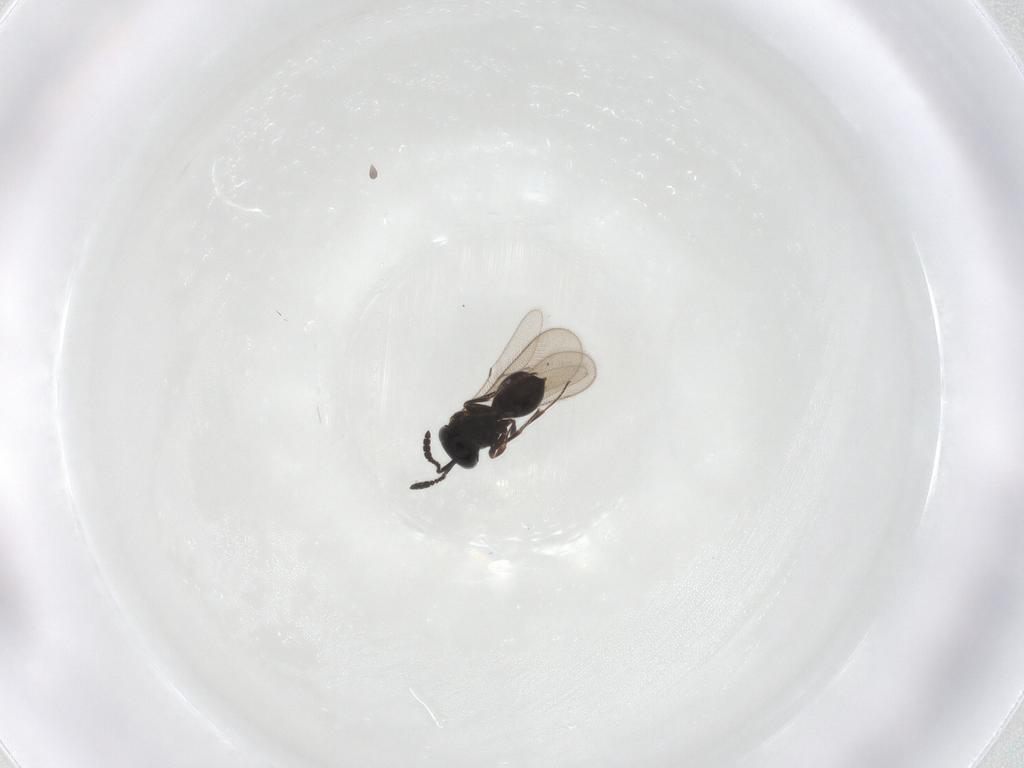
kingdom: Animalia
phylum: Arthropoda
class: Insecta
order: Hymenoptera
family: Scelionidae
